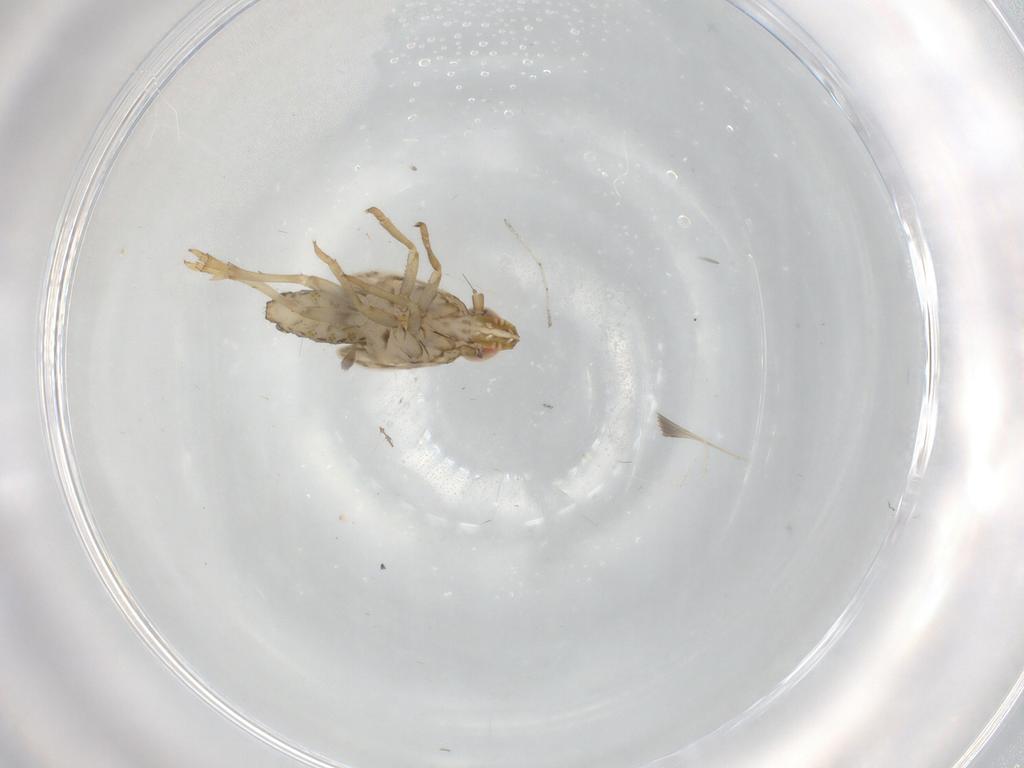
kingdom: Animalia
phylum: Arthropoda
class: Insecta
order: Hemiptera
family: Delphacidae
